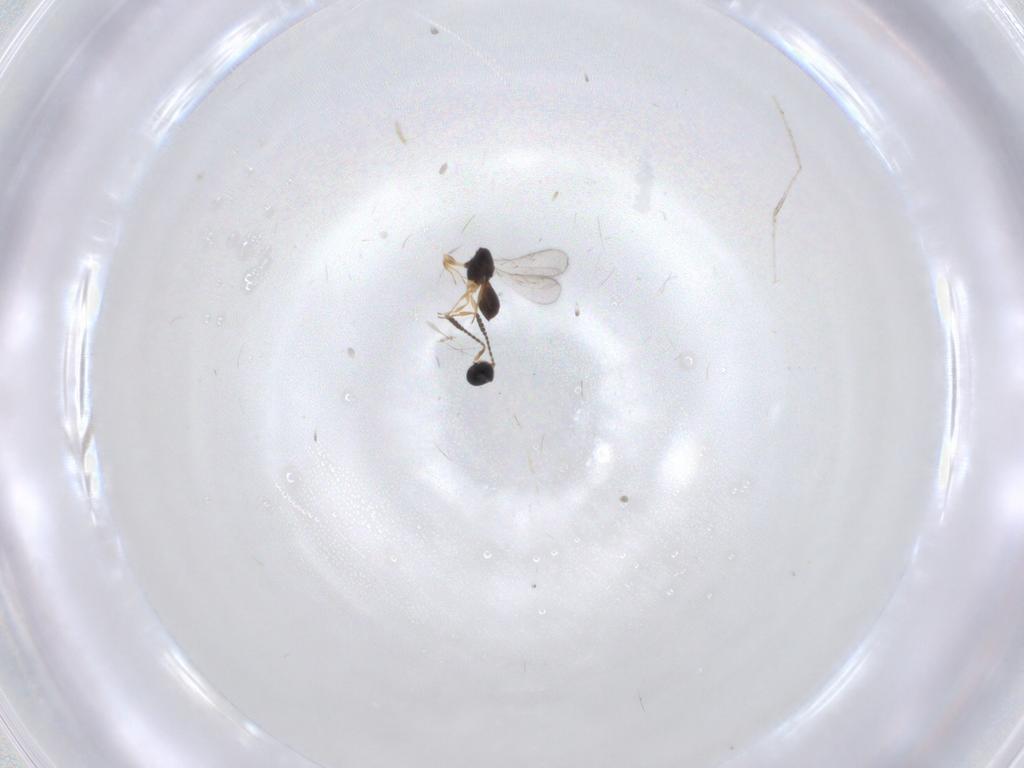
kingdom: Animalia
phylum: Arthropoda
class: Insecta
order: Hymenoptera
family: Scelionidae
